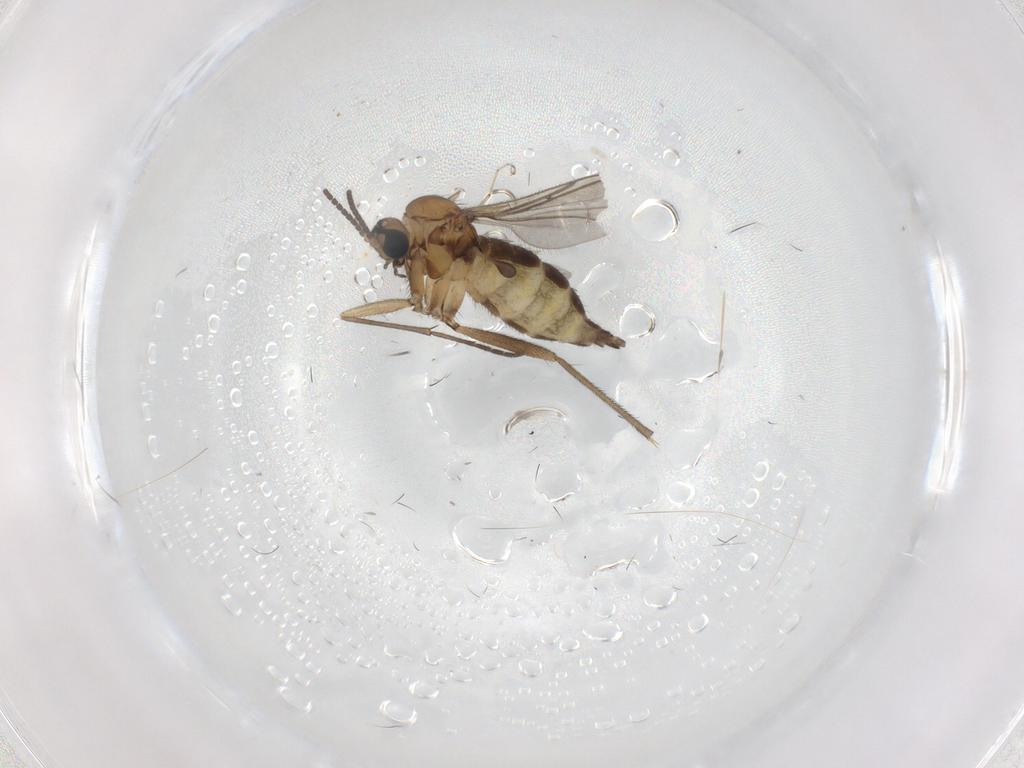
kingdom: Animalia
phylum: Arthropoda
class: Insecta
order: Diptera
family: Sciaridae
